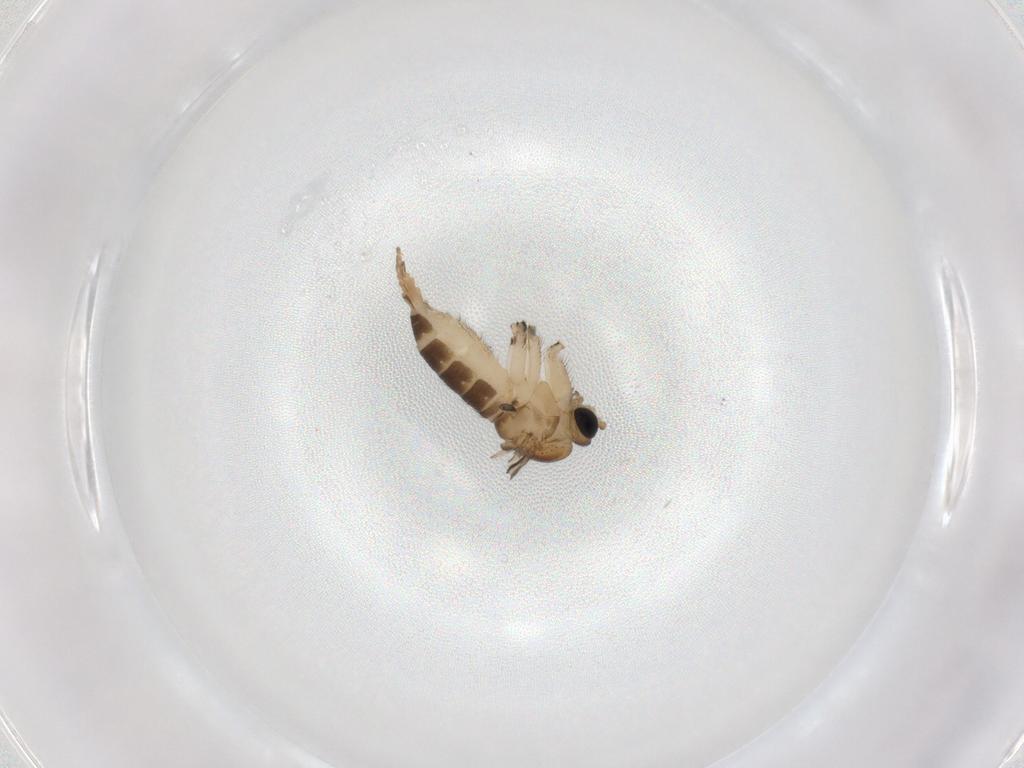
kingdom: Animalia
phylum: Arthropoda
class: Insecta
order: Diptera
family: Sciaridae
